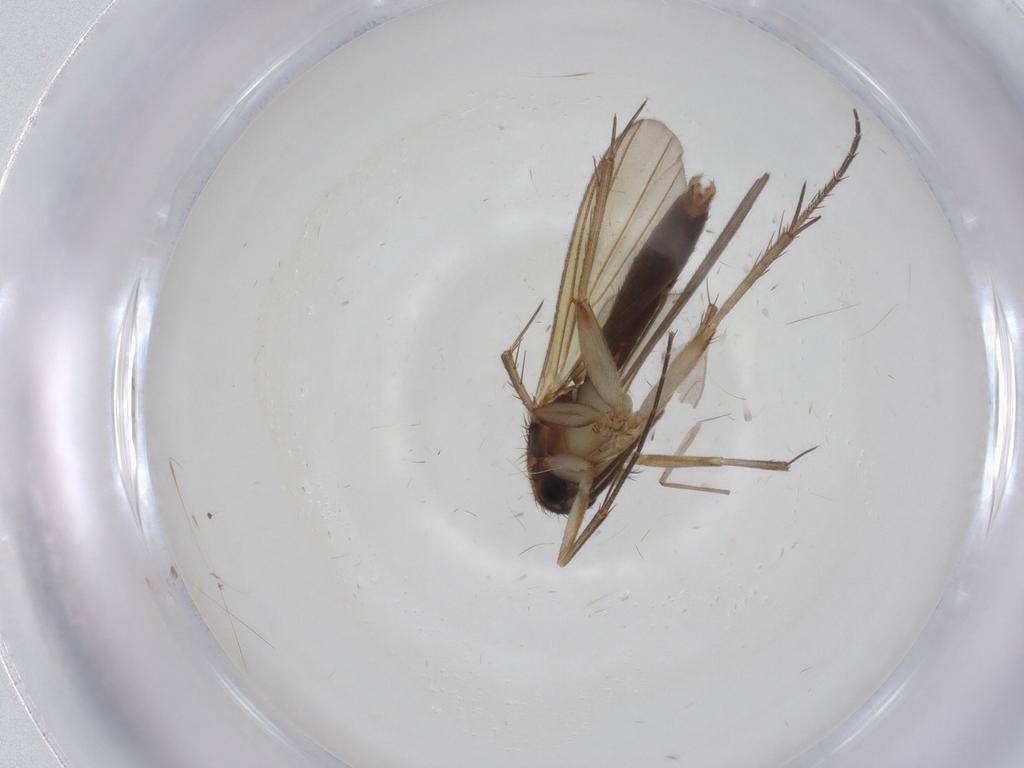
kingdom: Animalia
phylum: Arthropoda
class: Insecta
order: Diptera
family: Mycetophilidae
